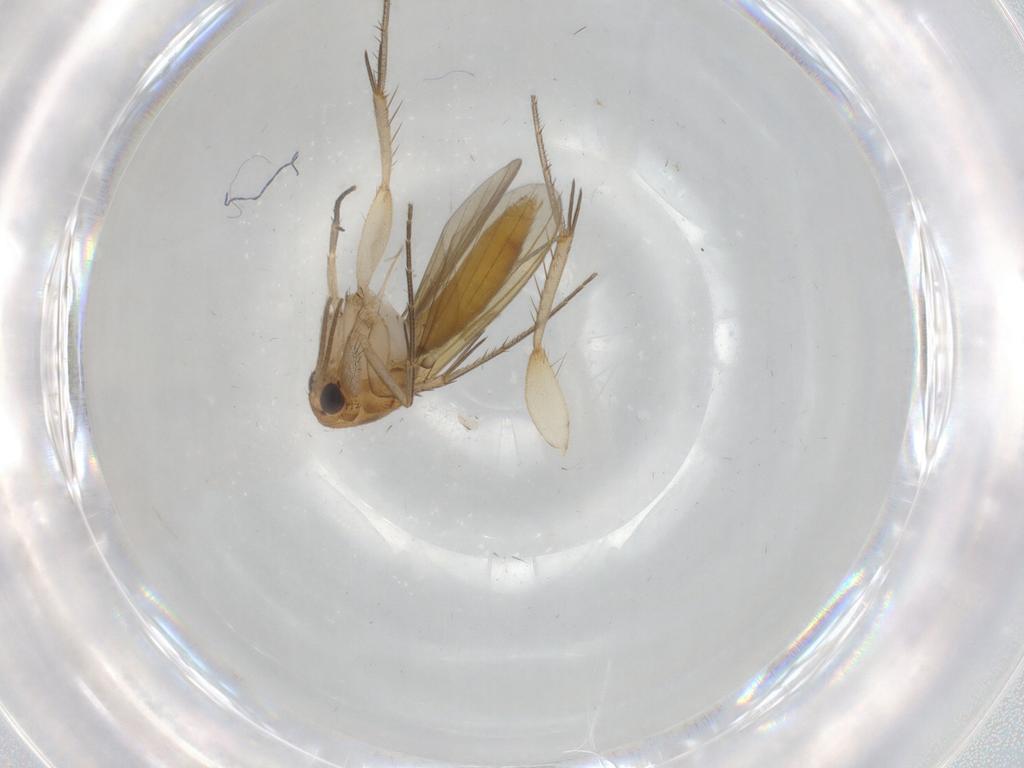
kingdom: Animalia
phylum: Arthropoda
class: Insecta
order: Diptera
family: Mycetophilidae
